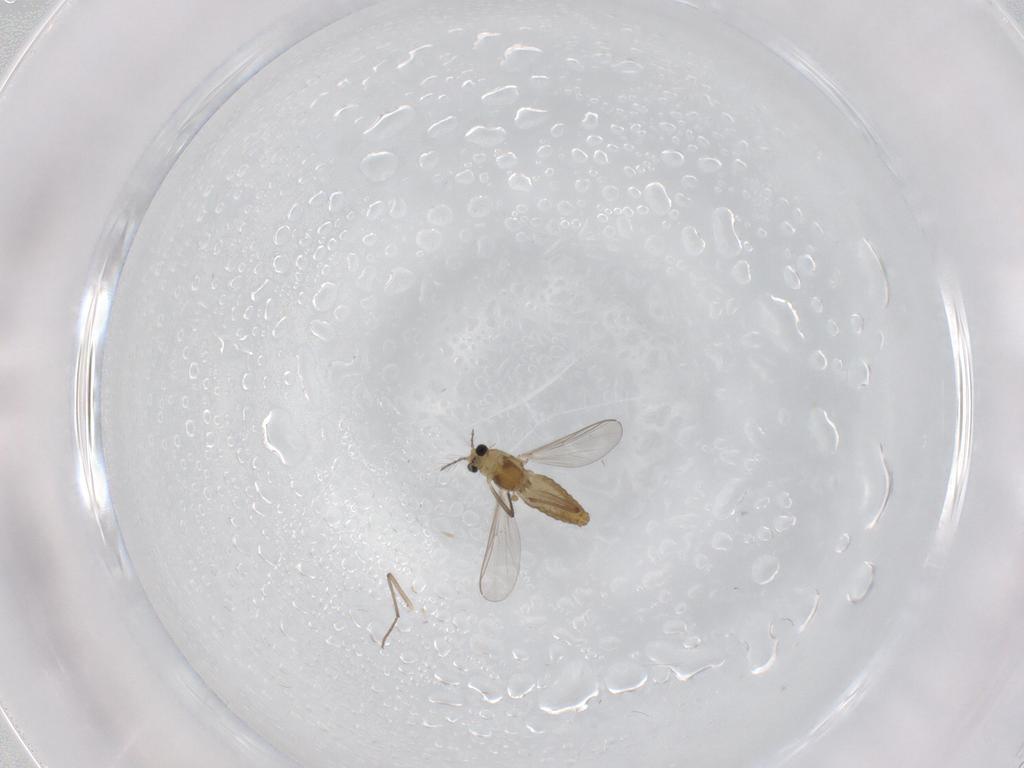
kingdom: Animalia
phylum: Arthropoda
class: Insecta
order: Diptera
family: Chironomidae
